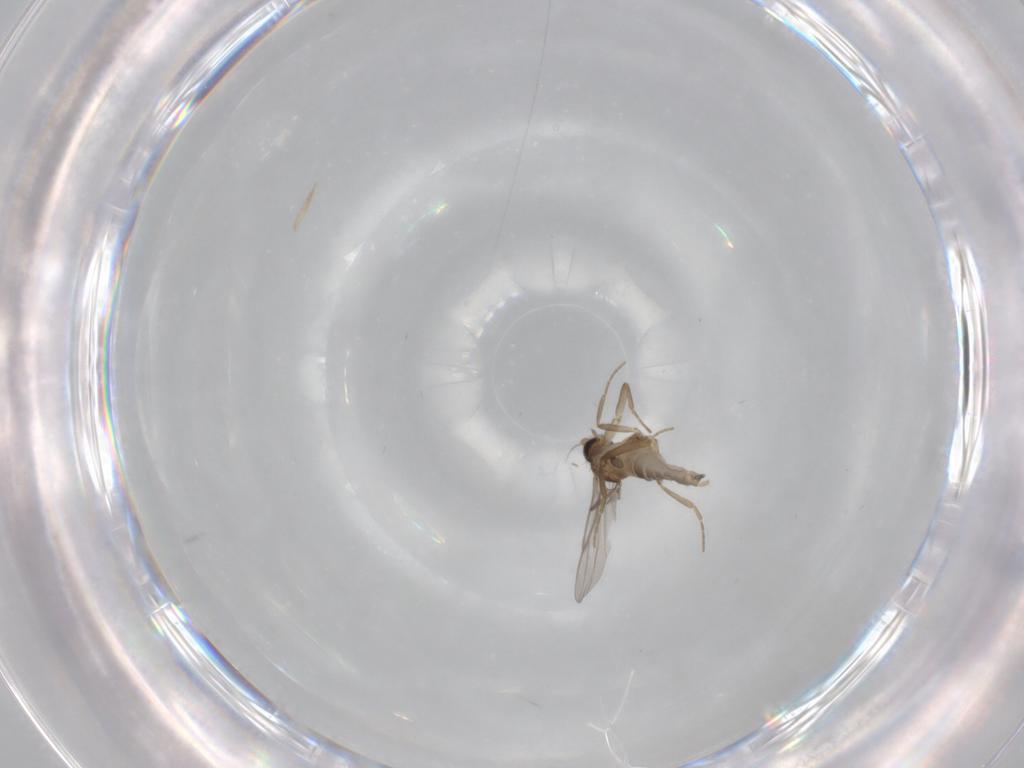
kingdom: Animalia
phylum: Arthropoda
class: Insecta
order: Diptera
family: Phoridae
